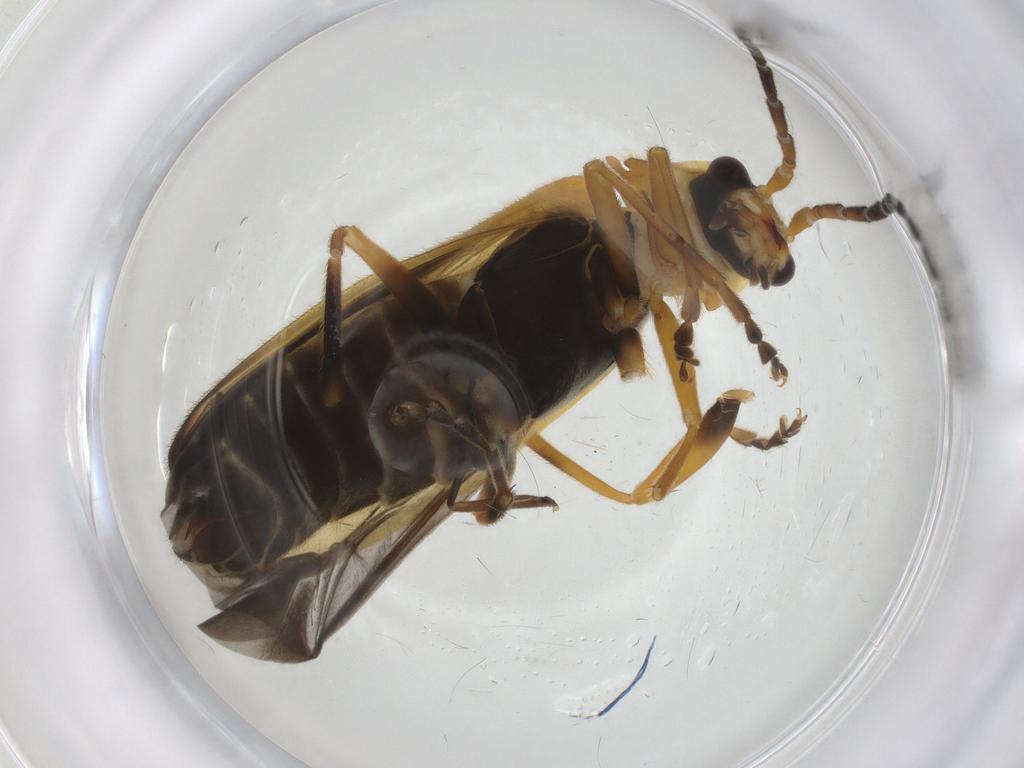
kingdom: Animalia
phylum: Arthropoda
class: Insecta
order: Coleoptera
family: Cantharidae
